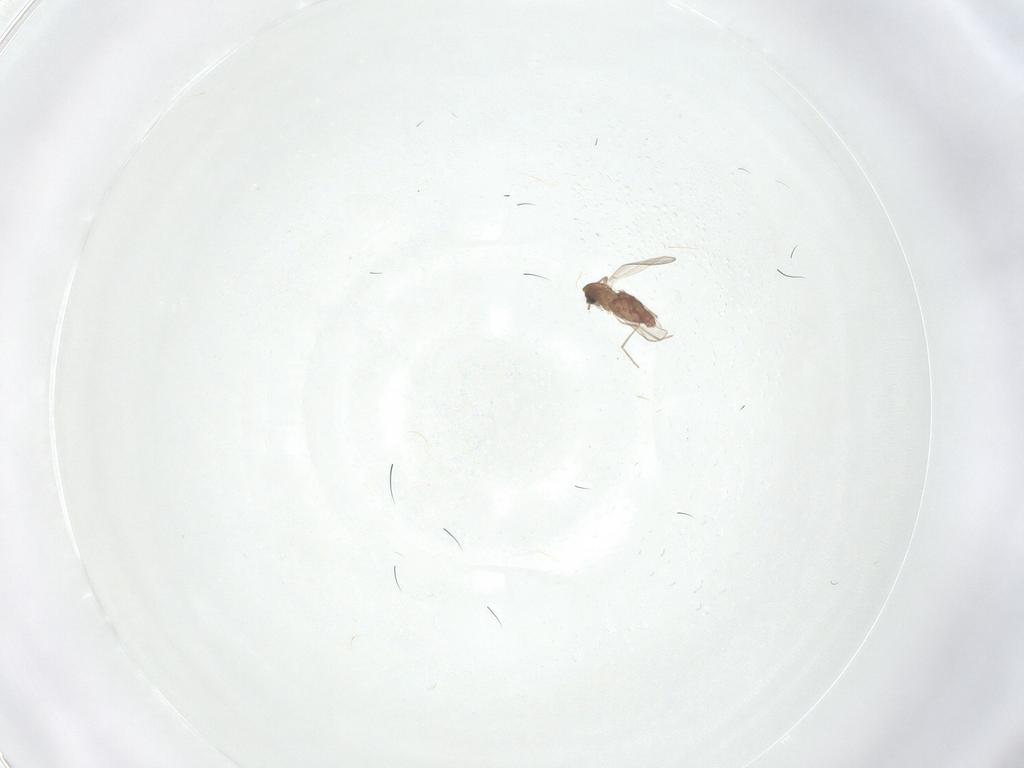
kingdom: Animalia
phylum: Arthropoda
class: Insecta
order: Diptera
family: Chironomidae
